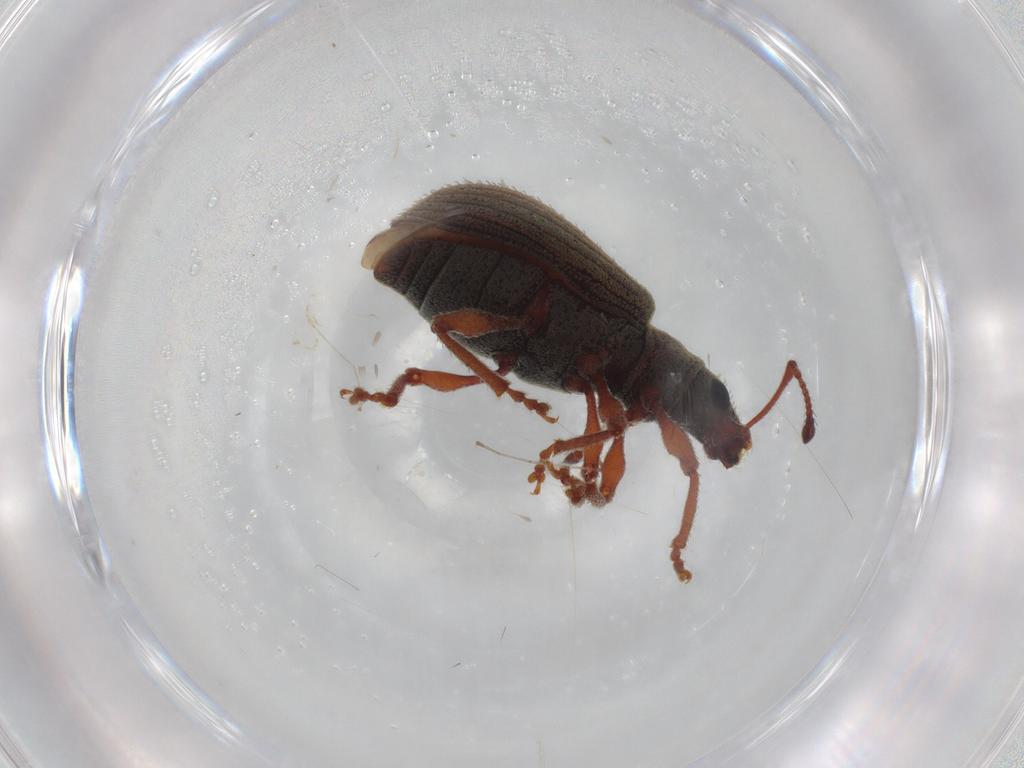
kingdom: Animalia
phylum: Arthropoda
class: Insecta
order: Coleoptera
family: Curculionidae
